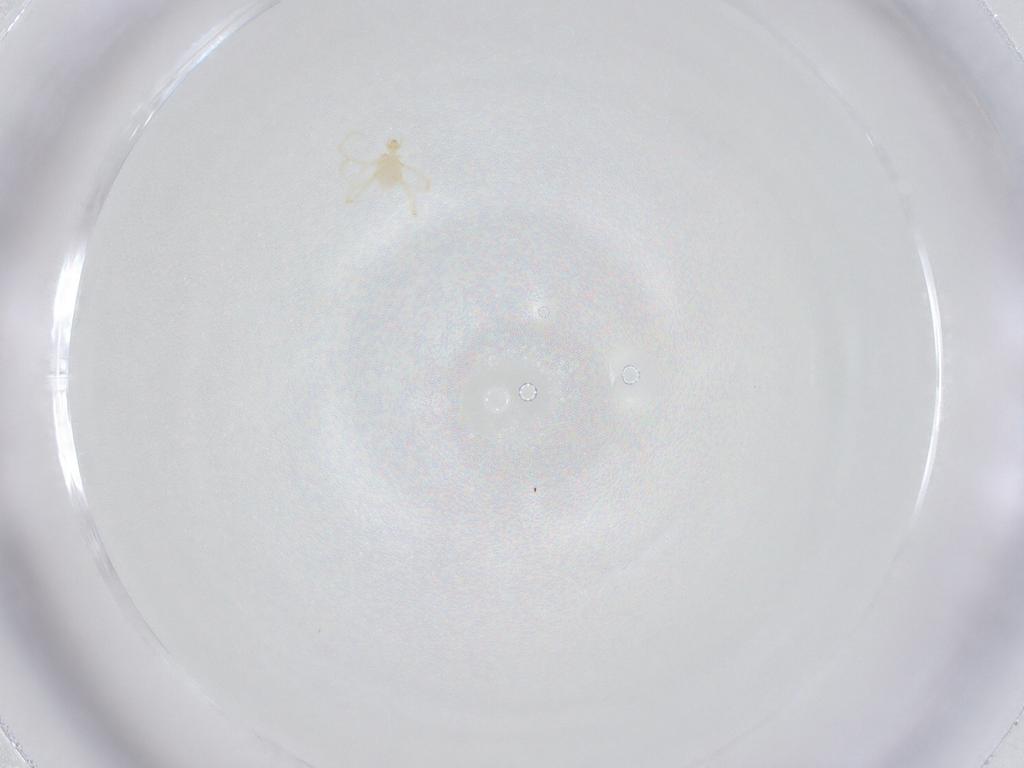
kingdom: Animalia
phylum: Arthropoda
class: Arachnida
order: Trombidiformes
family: Erythraeidae
